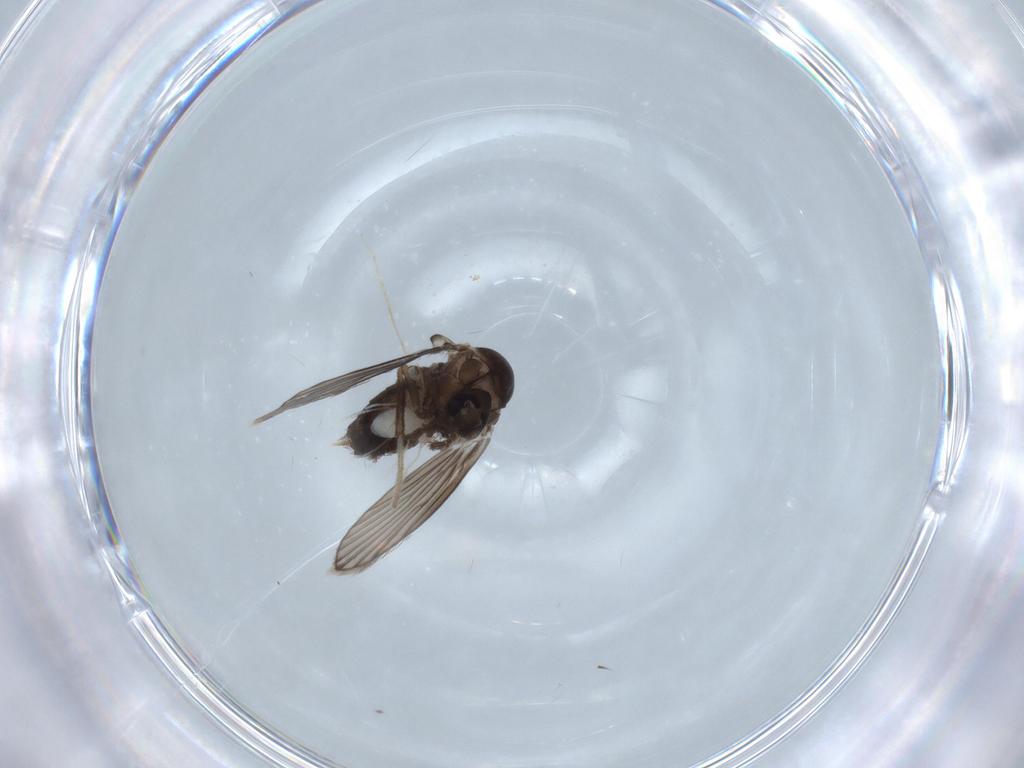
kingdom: Animalia
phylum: Arthropoda
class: Insecta
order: Diptera
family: Psychodidae
